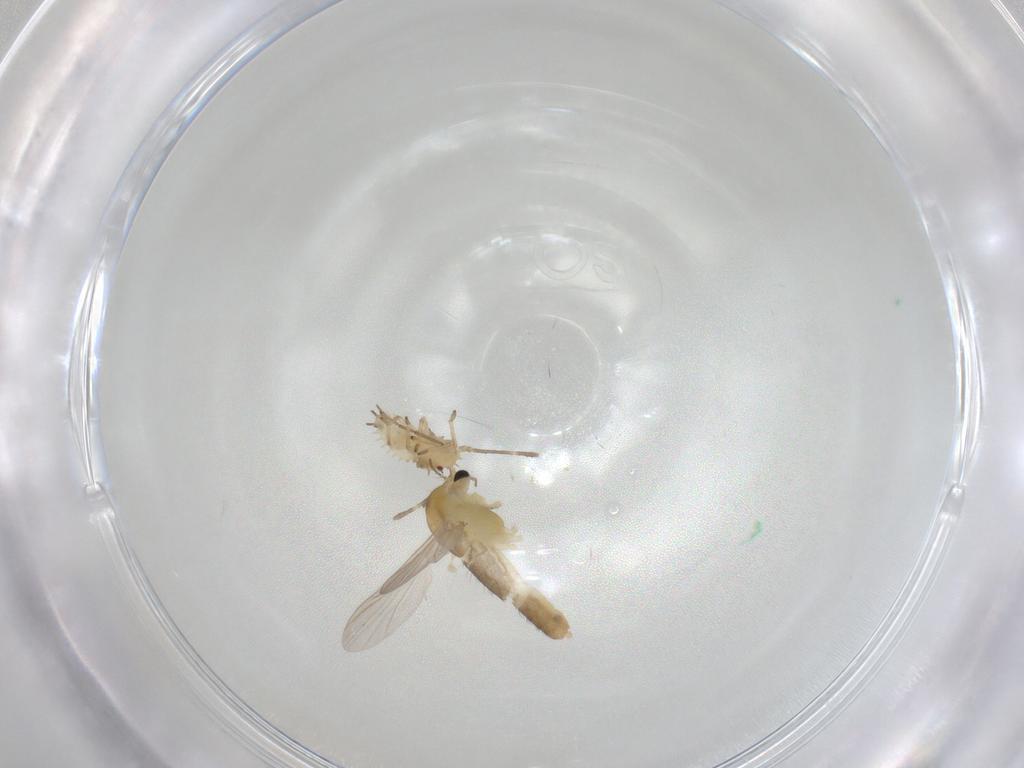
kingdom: Animalia
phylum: Arthropoda
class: Insecta
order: Diptera
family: Chironomidae
